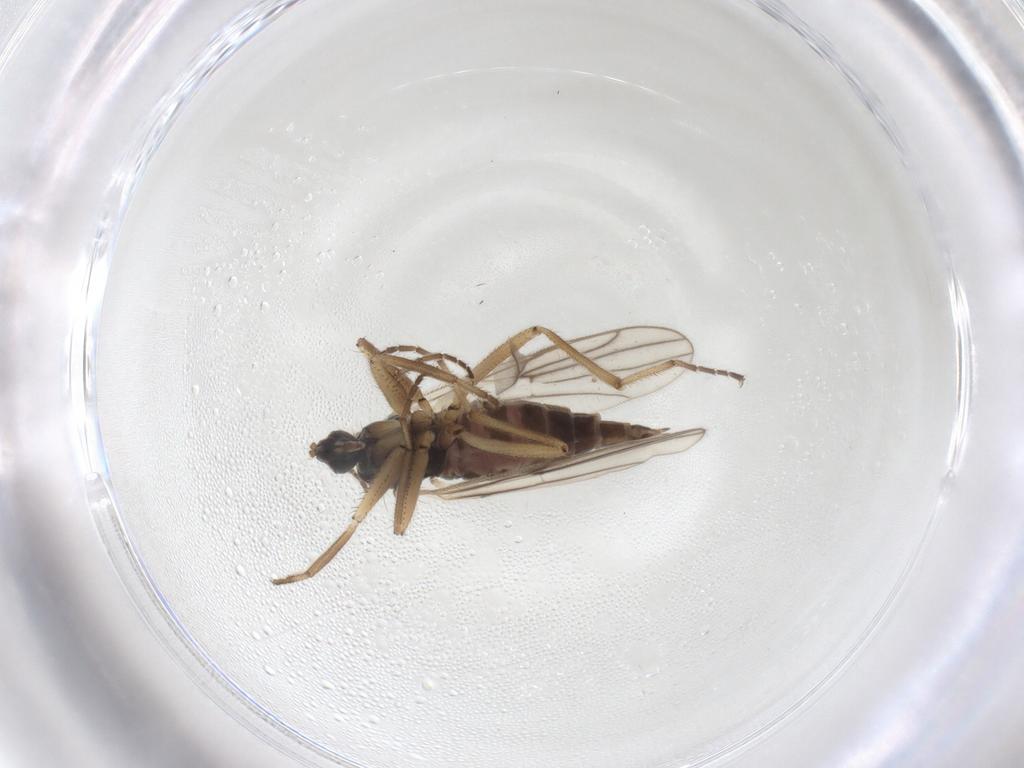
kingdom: Animalia
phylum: Arthropoda
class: Insecta
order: Diptera
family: Hybotidae
